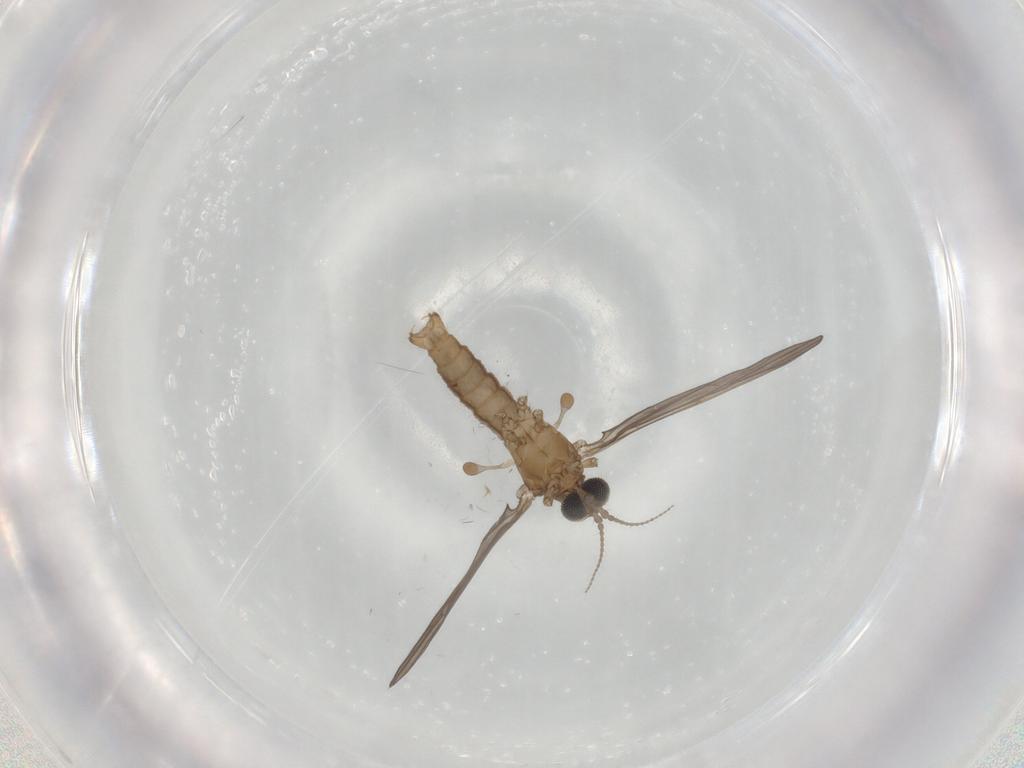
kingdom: Animalia
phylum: Arthropoda
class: Insecta
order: Diptera
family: Phoridae
